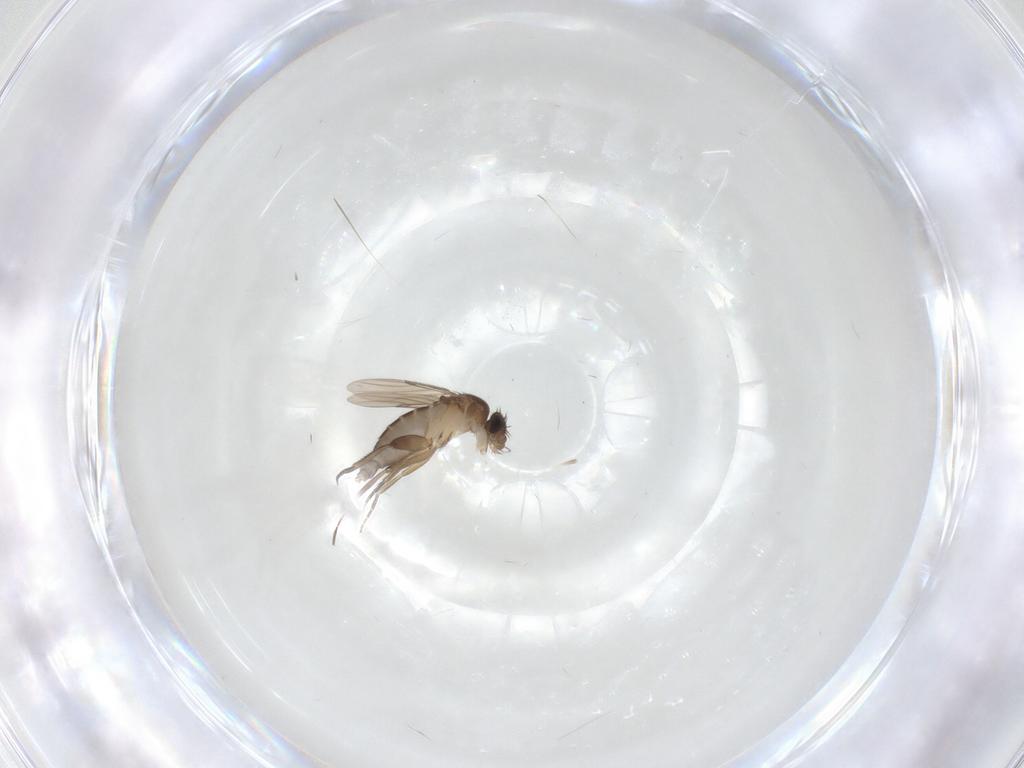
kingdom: Animalia
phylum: Arthropoda
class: Insecta
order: Diptera
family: Phoridae
